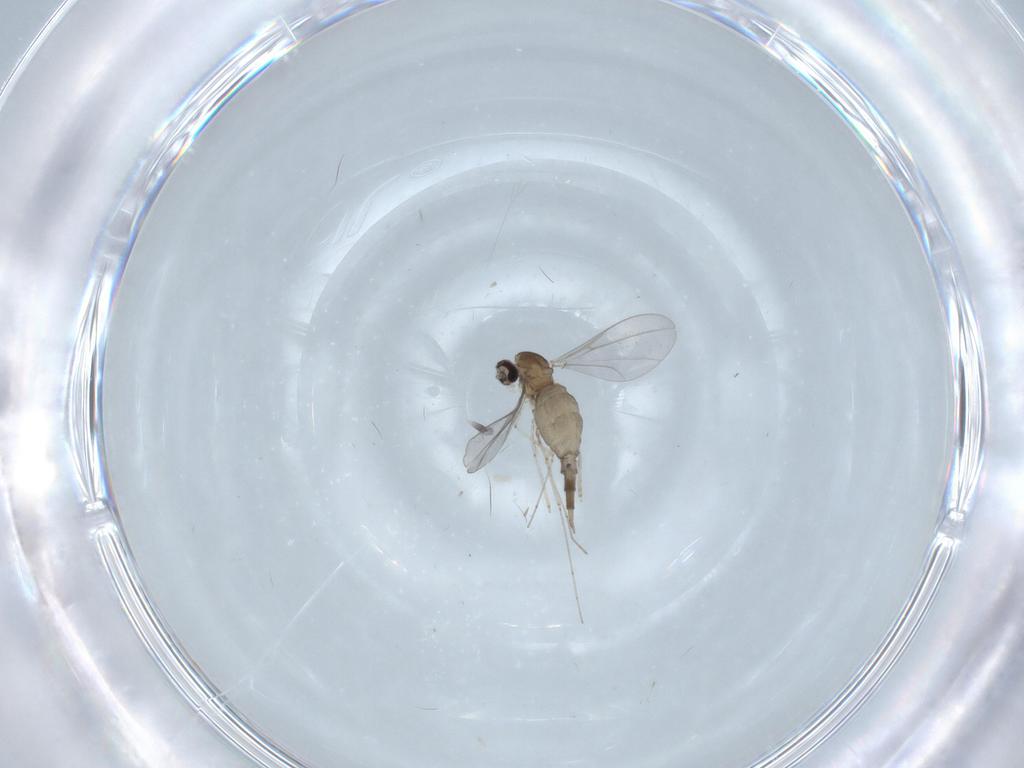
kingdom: Animalia
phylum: Arthropoda
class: Insecta
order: Diptera
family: Cecidomyiidae
